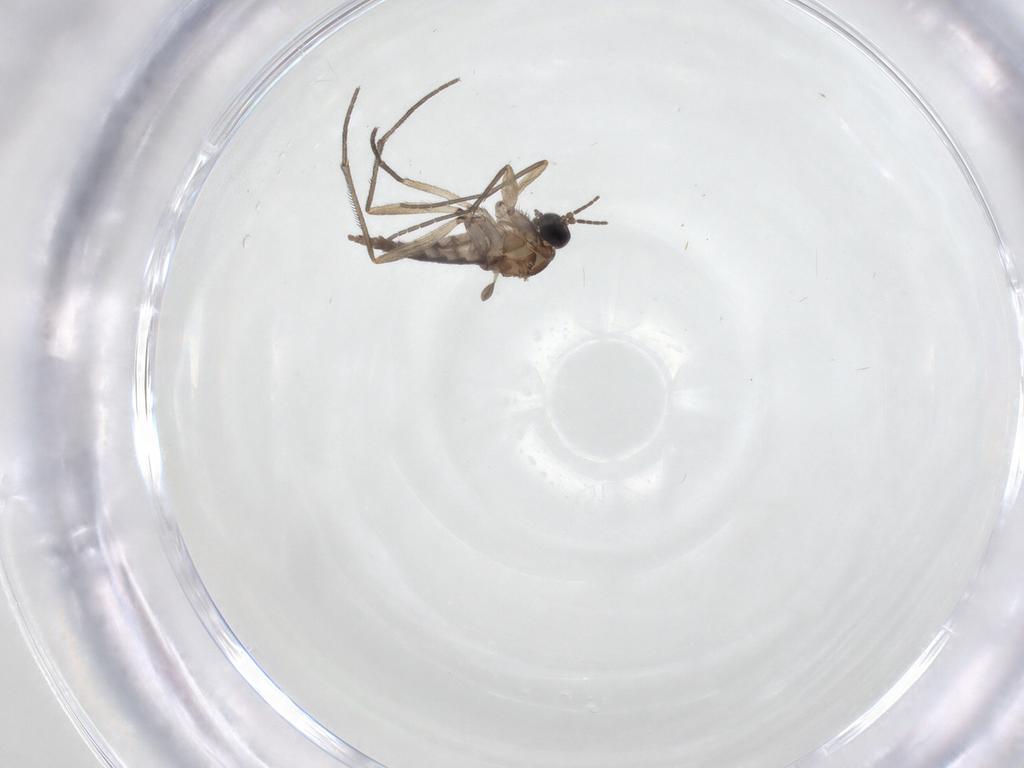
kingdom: Animalia
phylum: Arthropoda
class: Insecta
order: Diptera
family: Sciaridae
